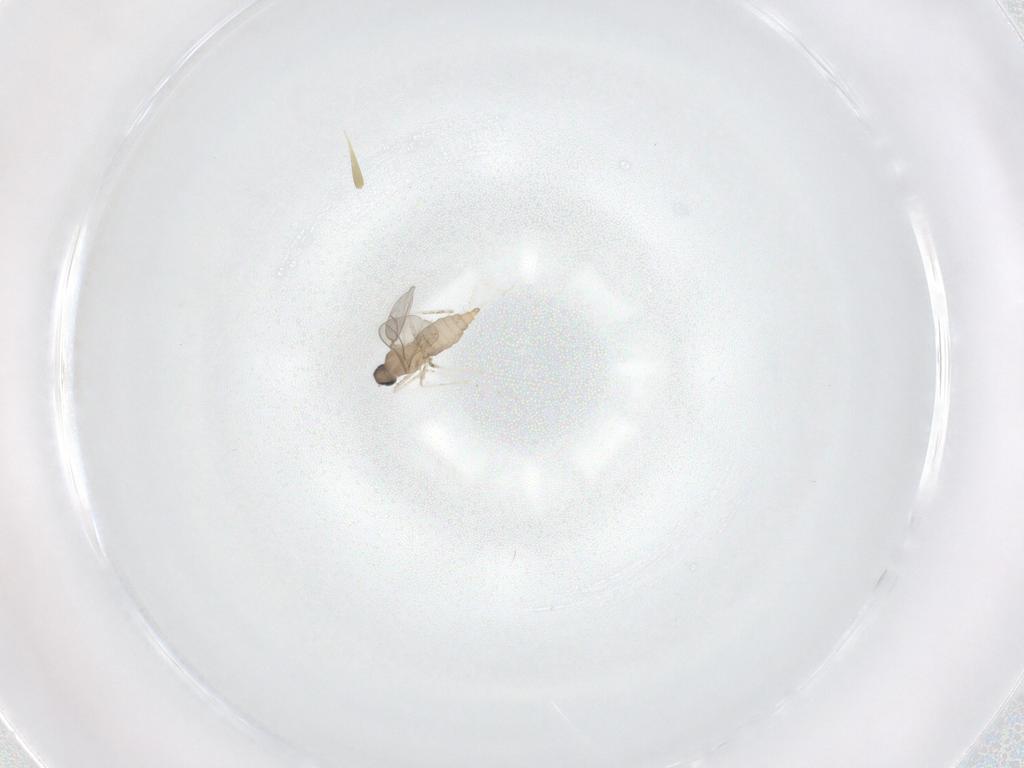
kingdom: Animalia
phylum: Arthropoda
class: Insecta
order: Diptera
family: Cecidomyiidae
